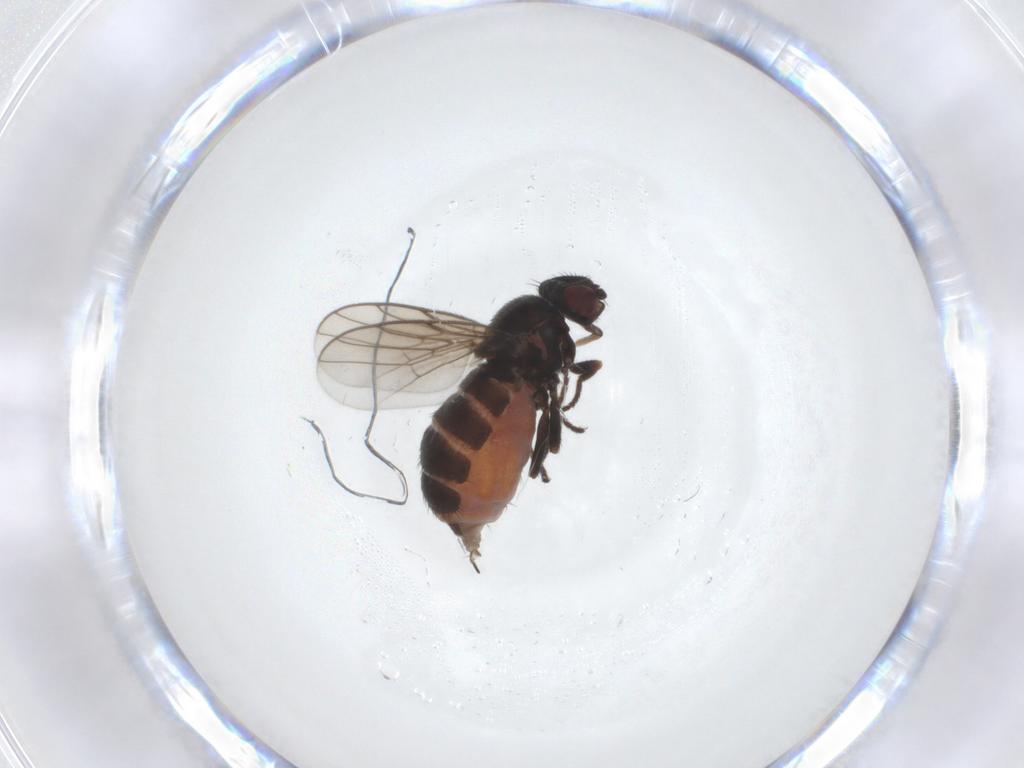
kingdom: Animalia
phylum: Arthropoda
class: Insecta
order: Diptera
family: Chloropidae
